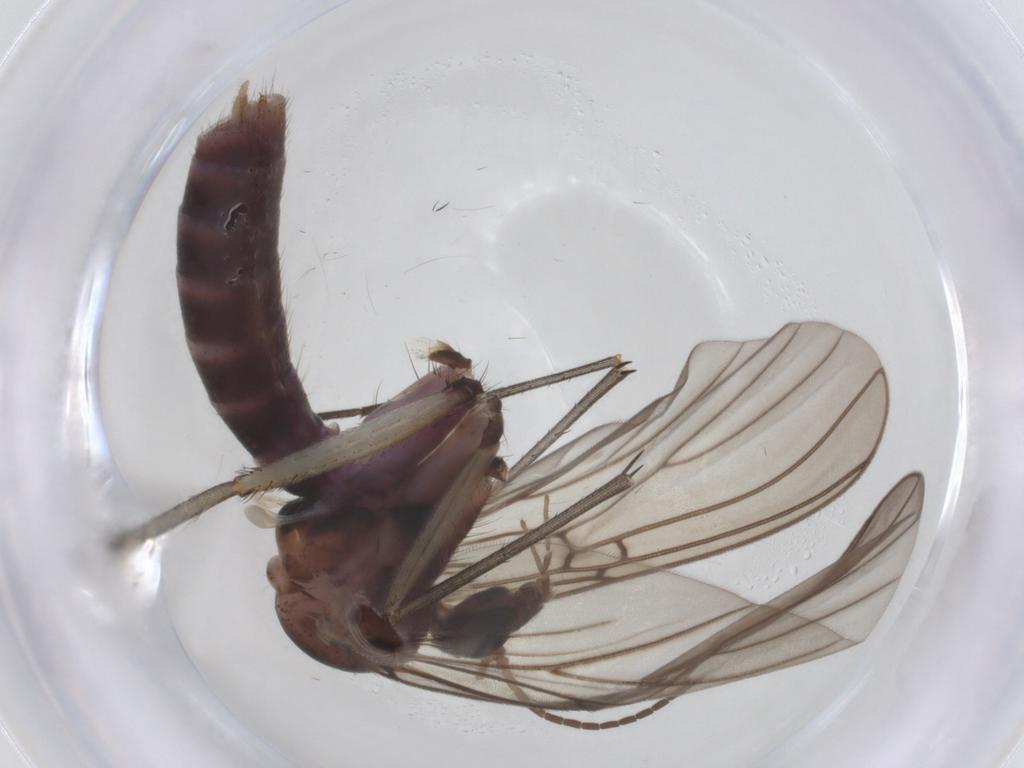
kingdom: Animalia
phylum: Arthropoda
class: Insecta
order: Diptera
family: Mycetophilidae
